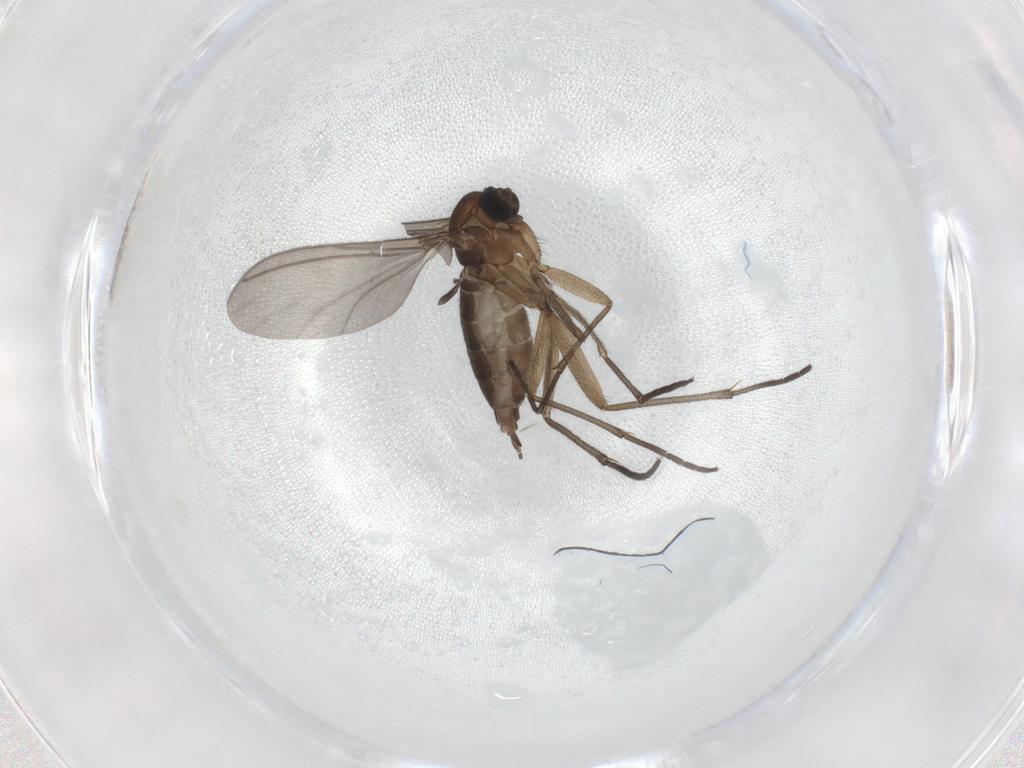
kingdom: Animalia
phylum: Arthropoda
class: Insecta
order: Diptera
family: Sciaridae
